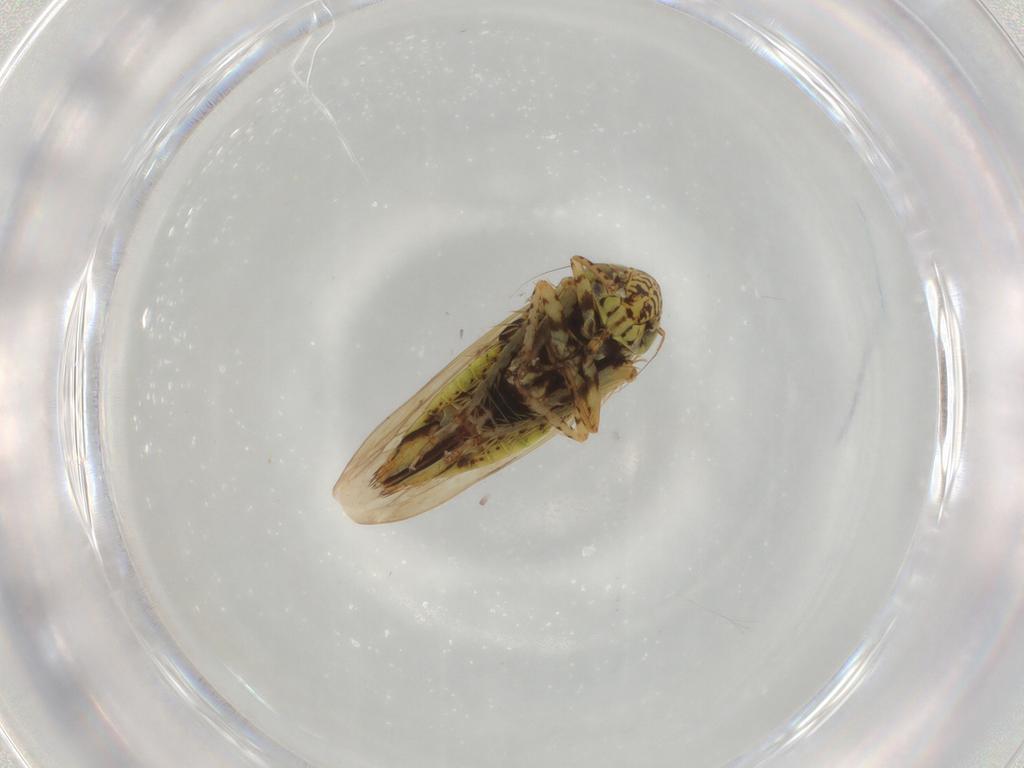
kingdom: Animalia
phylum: Arthropoda
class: Insecta
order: Hemiptera
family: Cicadellidae
